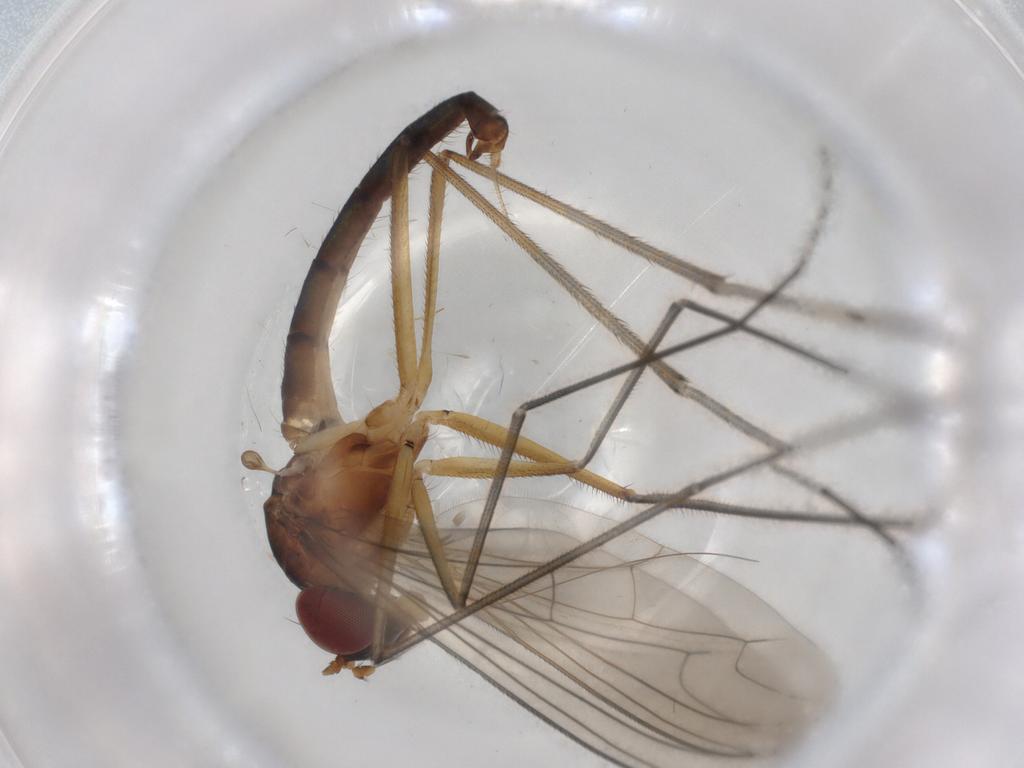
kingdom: Animalia
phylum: Arthropoda
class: Insecta
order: Diptera
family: Dolichopodidae
